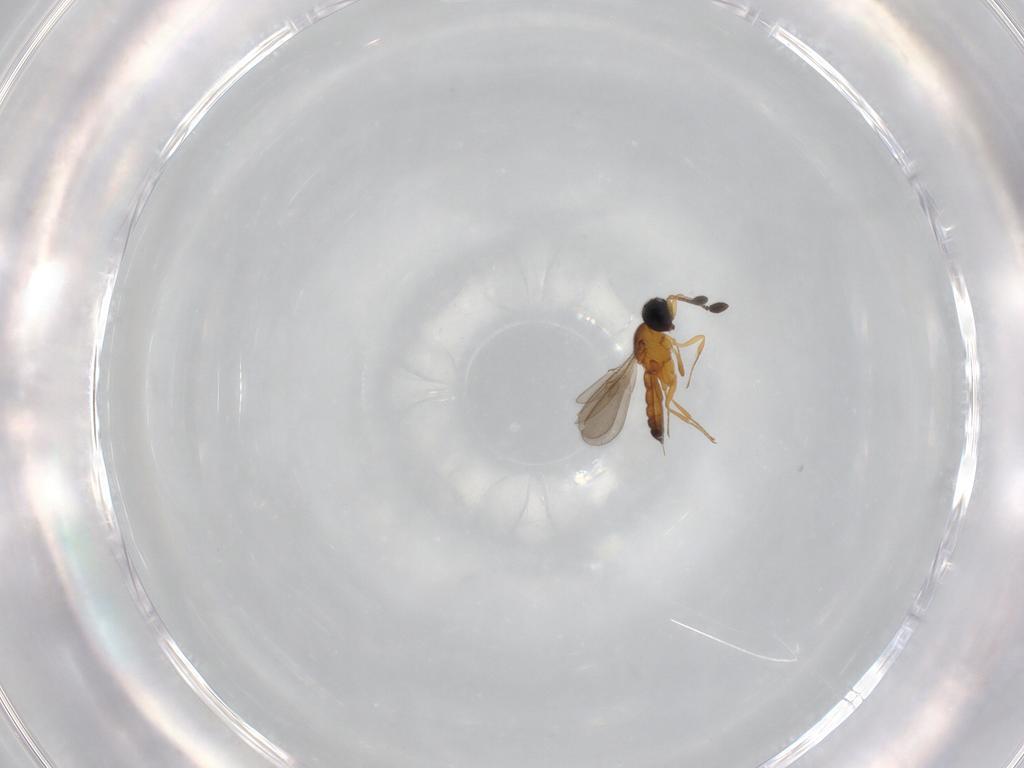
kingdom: Animalia
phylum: Arthropoda
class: Insecta
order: Hymenoptera
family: Scelionidae
